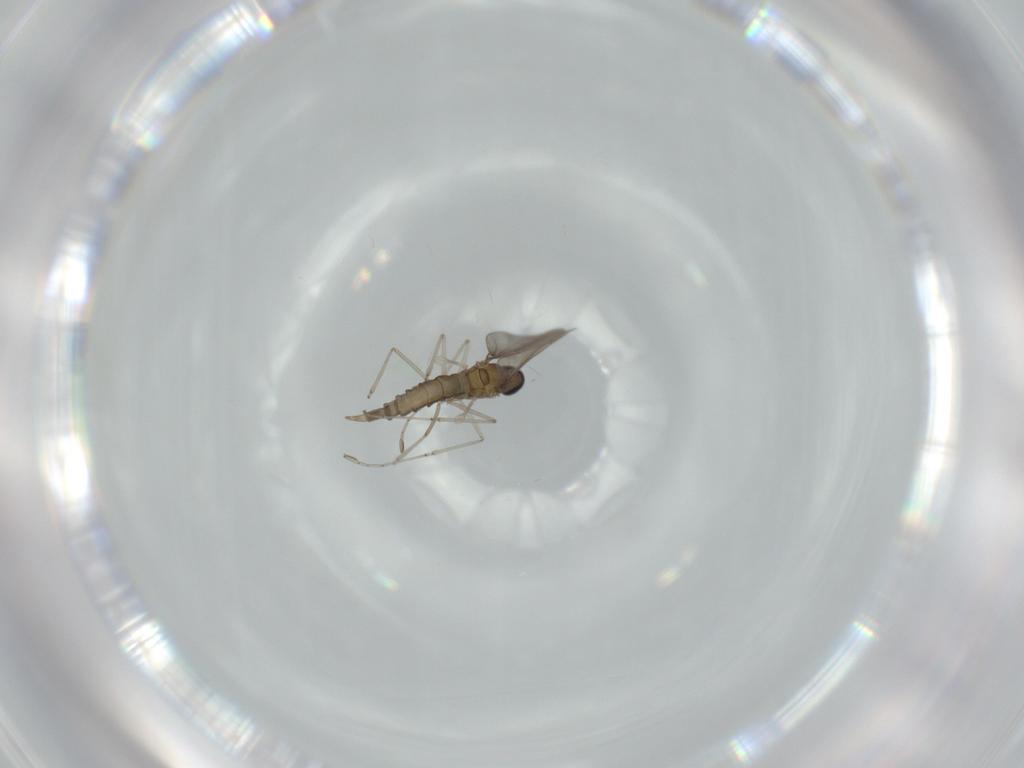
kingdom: Animalia
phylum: Arthropoda
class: Insecta
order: Diptera
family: Cecidomyiidae
